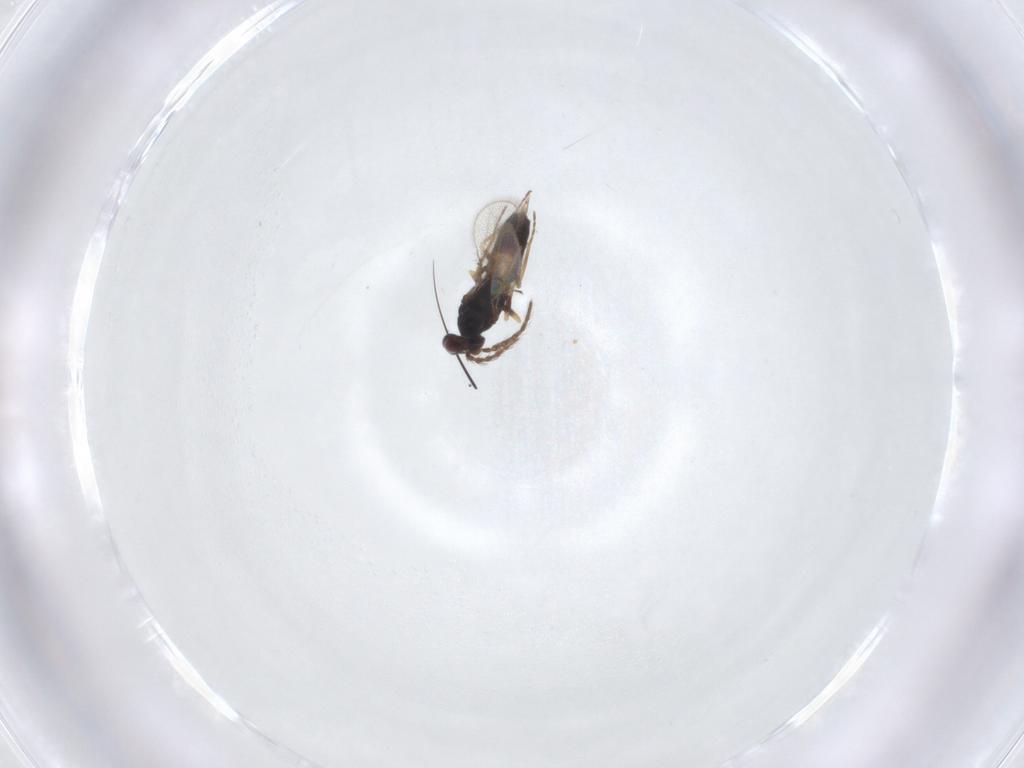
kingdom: Animalia
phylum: Arthropoda
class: Insecta
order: Hymenoptera
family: Eulophidae
